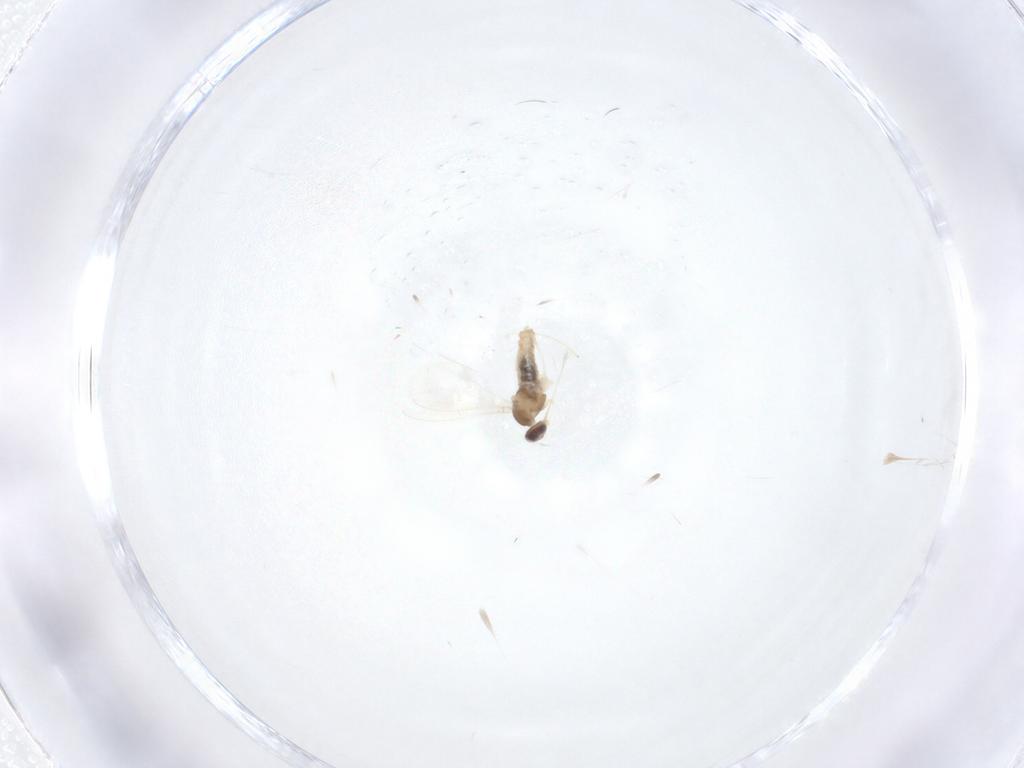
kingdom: Animalia
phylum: Arthropoda
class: Insecta
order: Diptera
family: Cecidomyiidae
